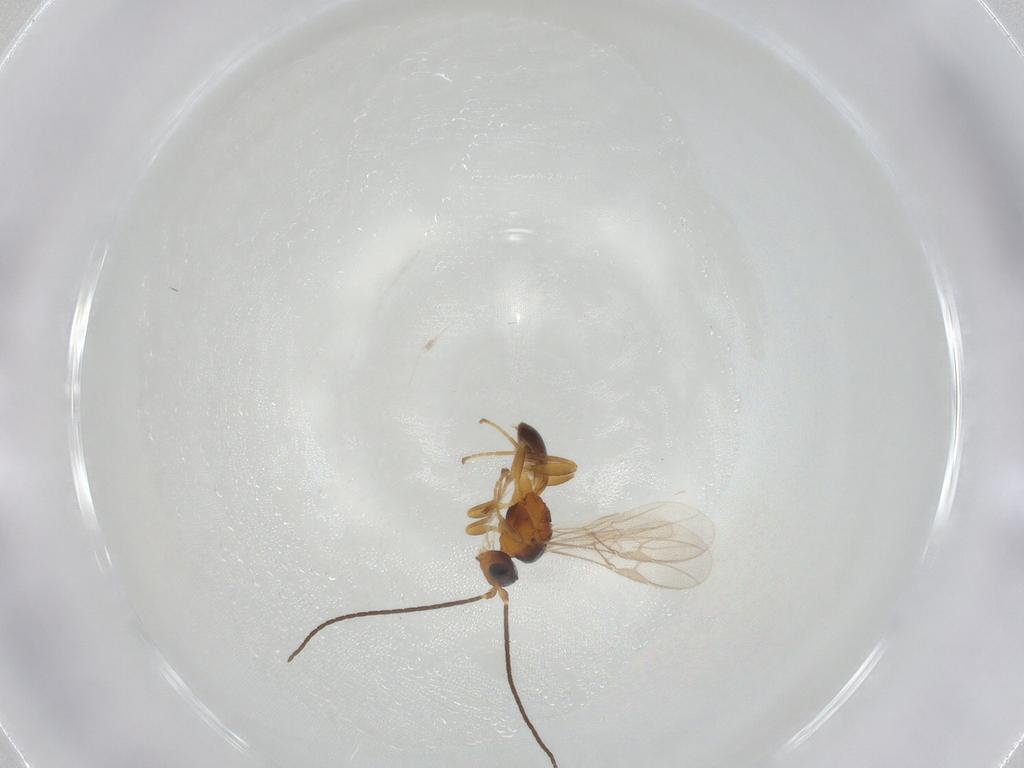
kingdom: Animalia
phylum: Arthropoda
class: Insecta
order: Hymenoptera
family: Braconidae
